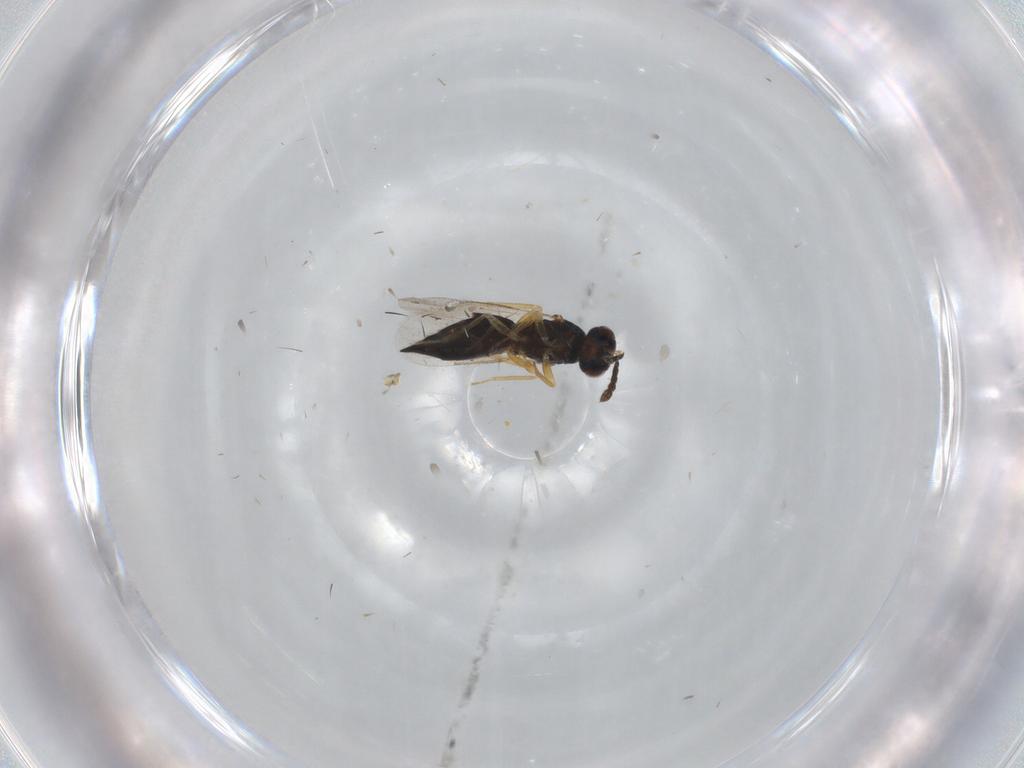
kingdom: Animalia
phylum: Arthropoda
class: Insecta
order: Hymenoptera
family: Eulophidae
